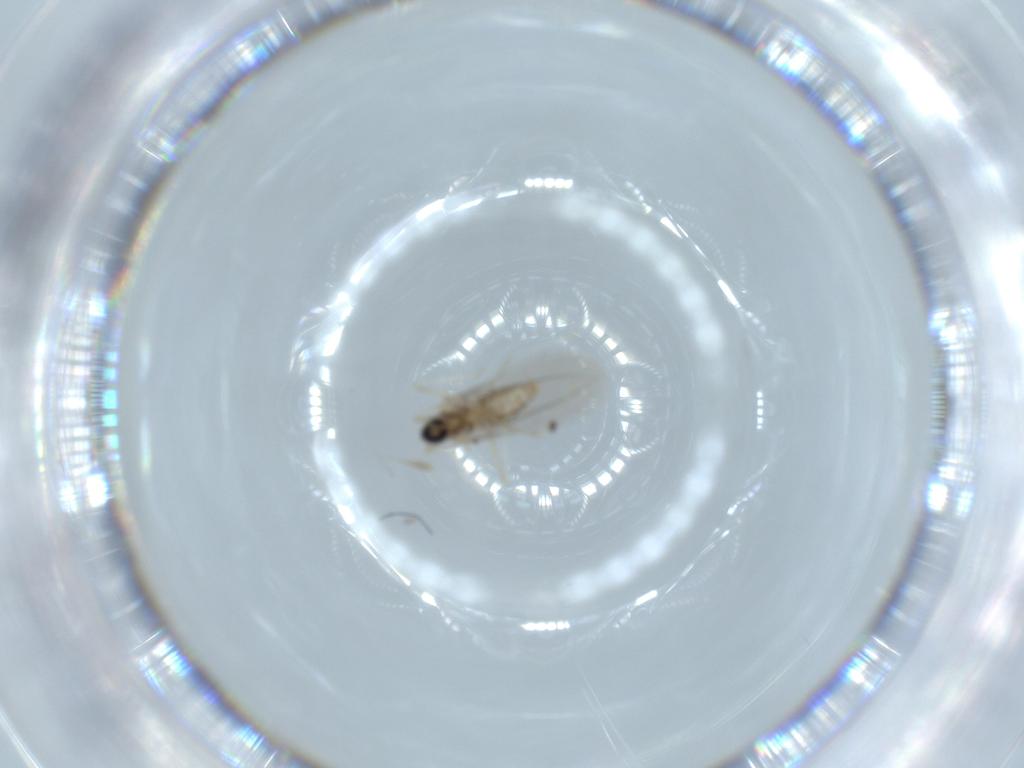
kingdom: Animalia
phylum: Arthropoda
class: Insecta
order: Diptera
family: Cecidomyiidae
